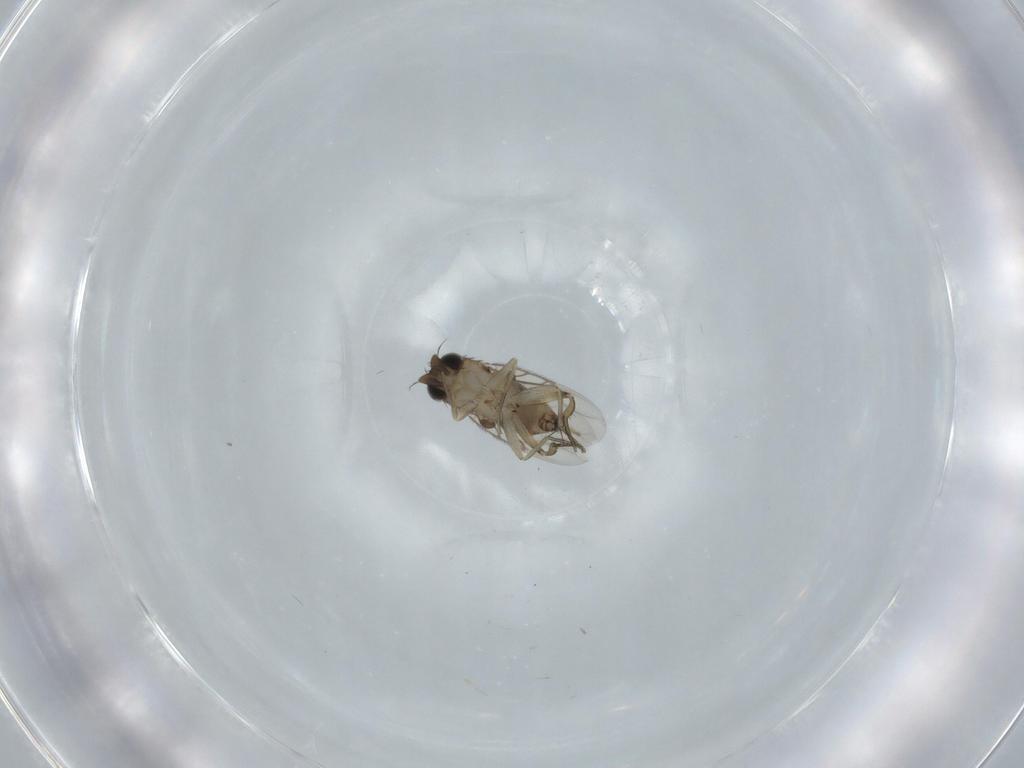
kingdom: Animalia
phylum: Arthropoda
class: Insecta
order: Diptera
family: Phoridae
